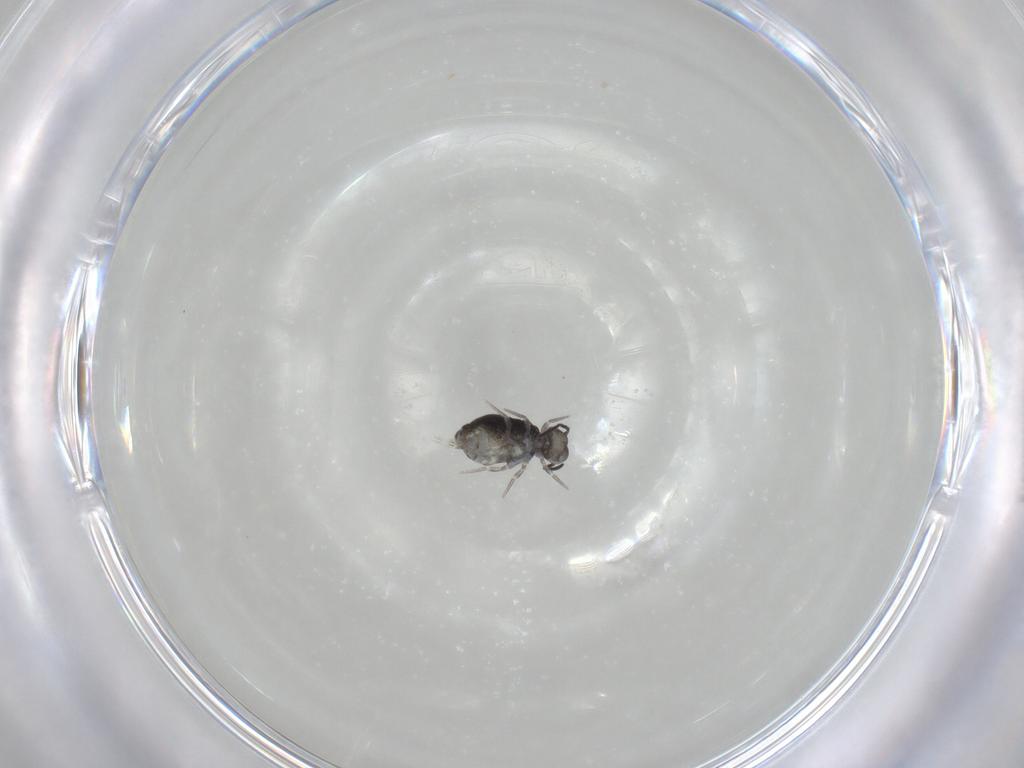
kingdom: Animalia
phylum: Arthropoda
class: Collembola
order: Symphypleona
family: Katiannidae
